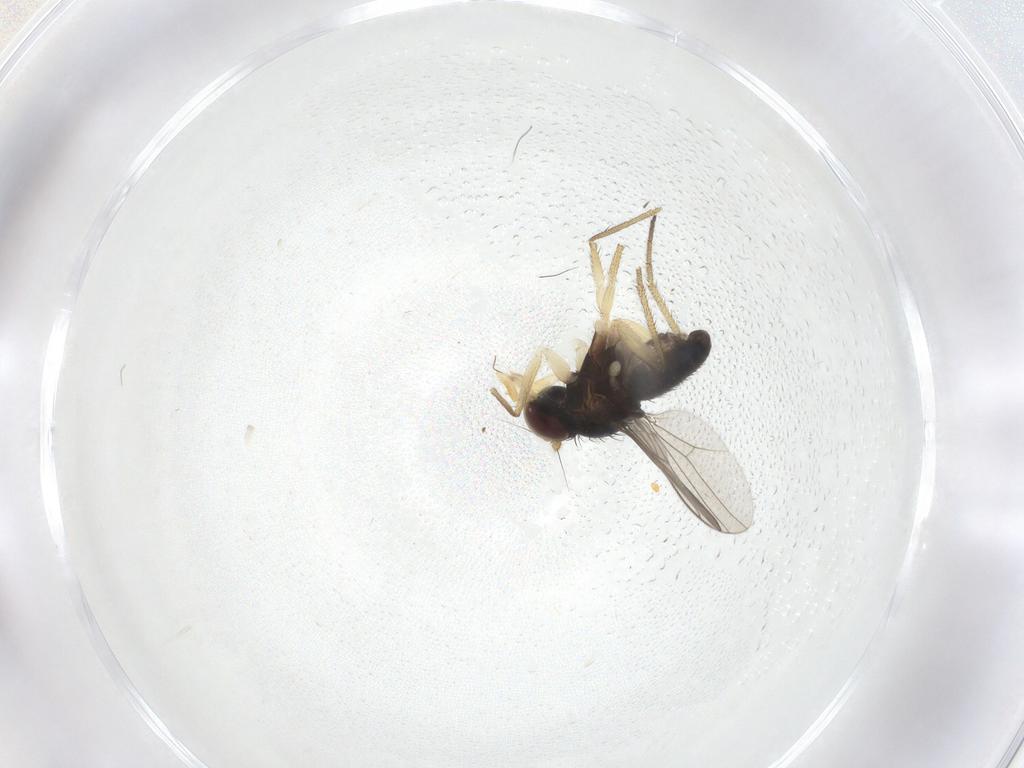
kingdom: Animalia
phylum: Arthropoda
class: Insecta
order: Diptera
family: Dolichopodidae
